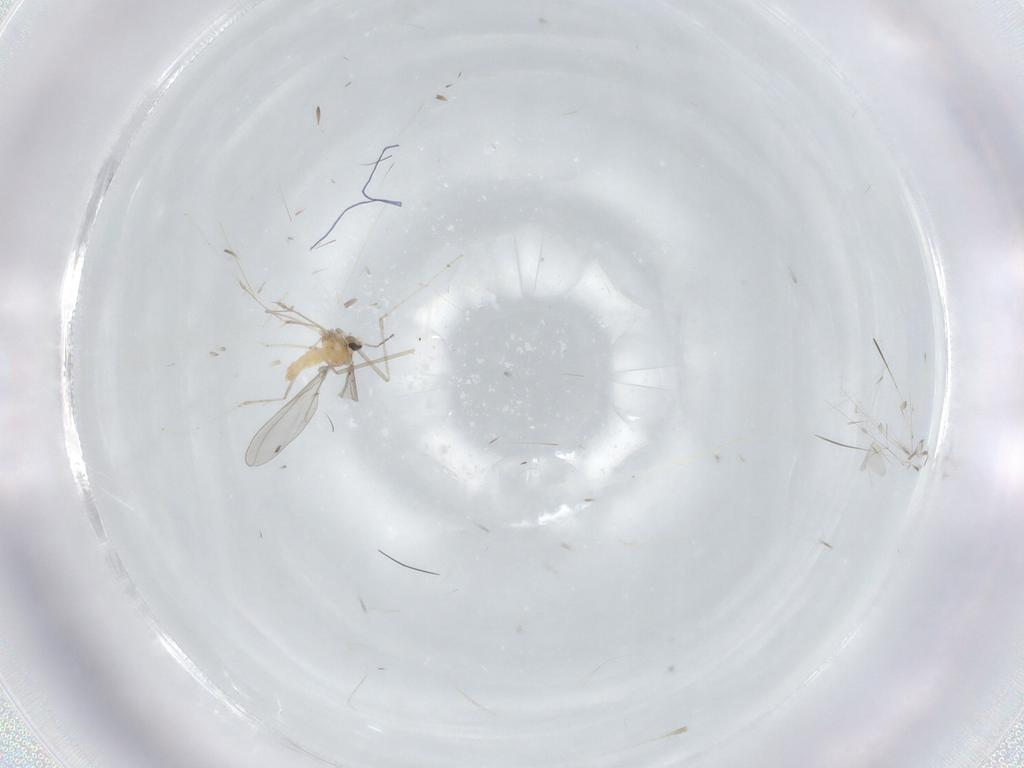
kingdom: Animalia
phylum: Arthropoda
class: Insecta
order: Diptera
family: Cecidomyiidae
